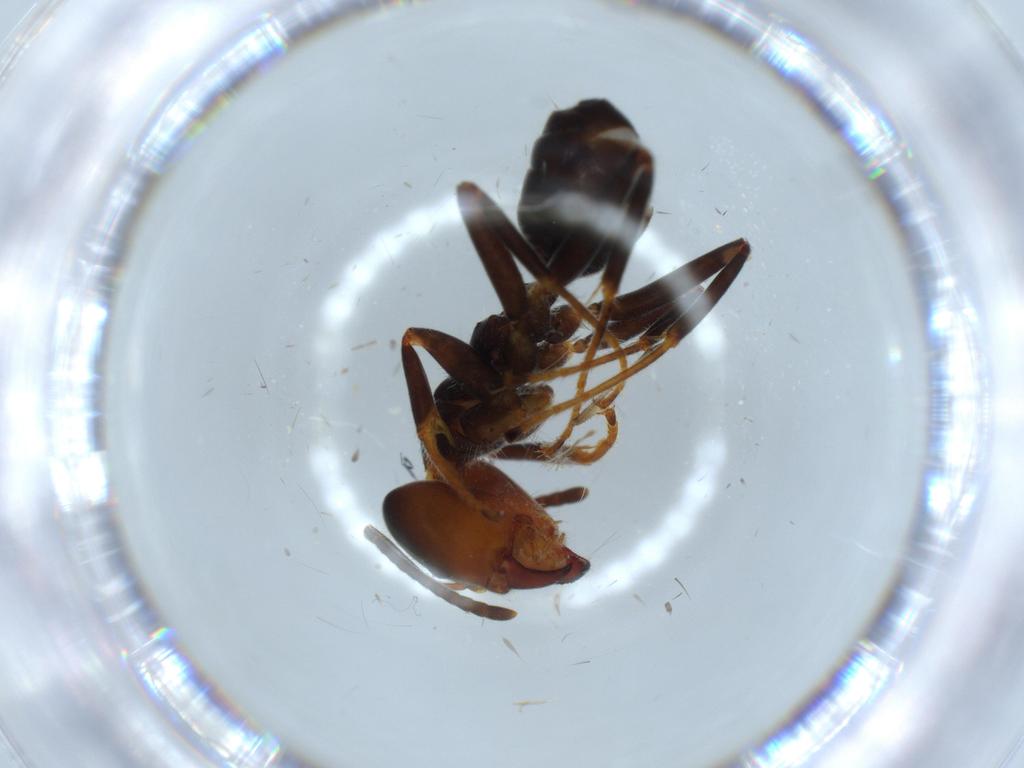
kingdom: Animalia
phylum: Arthropoda
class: Insecta
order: Hymenoptera
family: Formicidae
